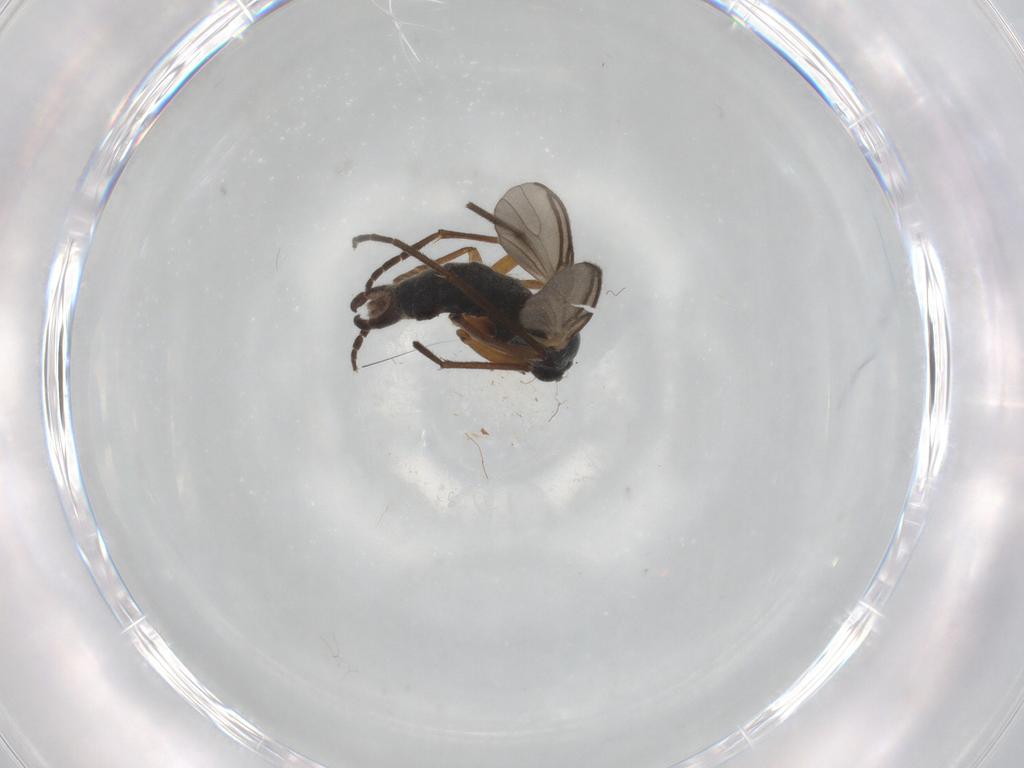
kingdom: Animalia
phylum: Arthropoda
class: Insecta
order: Diptera
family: Sciaridae
